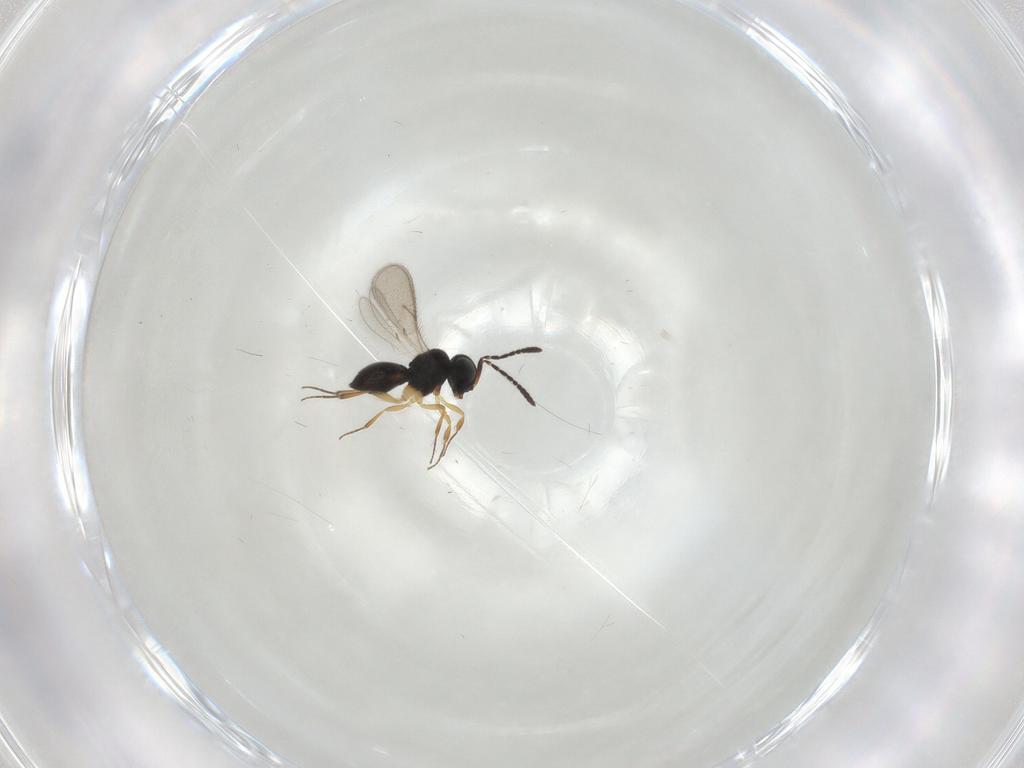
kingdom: Animalia
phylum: Arthropoda
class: Insecta
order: Hymenoptera
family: Scelionidae
